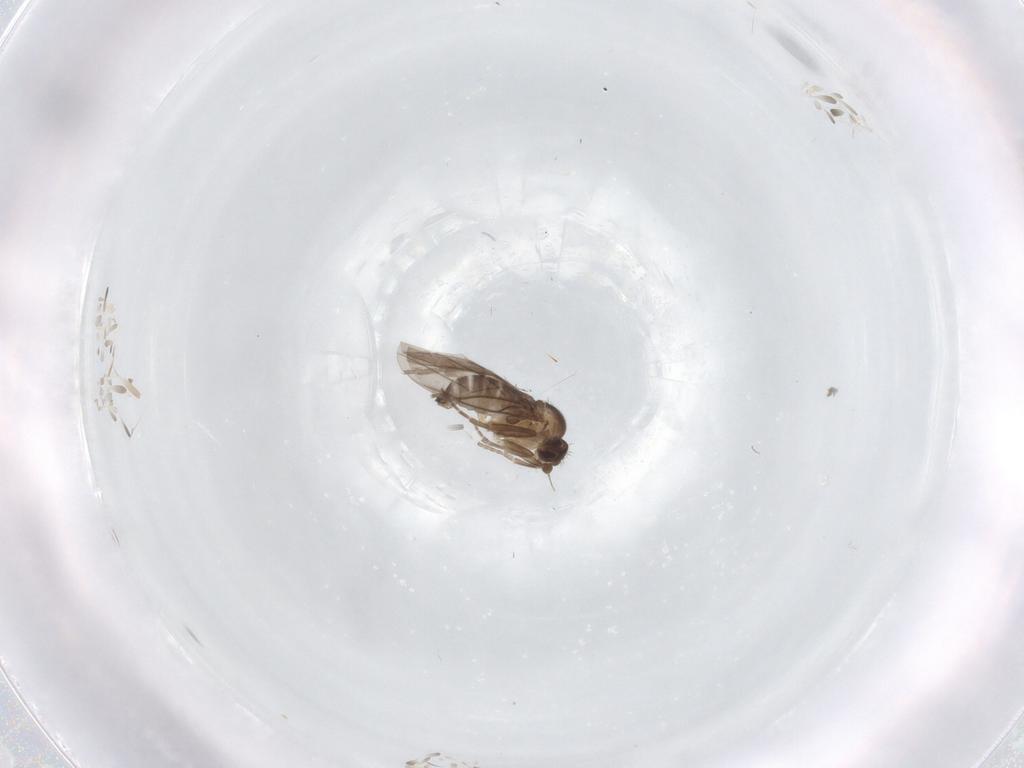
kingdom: Animalia
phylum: Arthropoda
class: Insecta
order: Diptera
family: Phoridae
